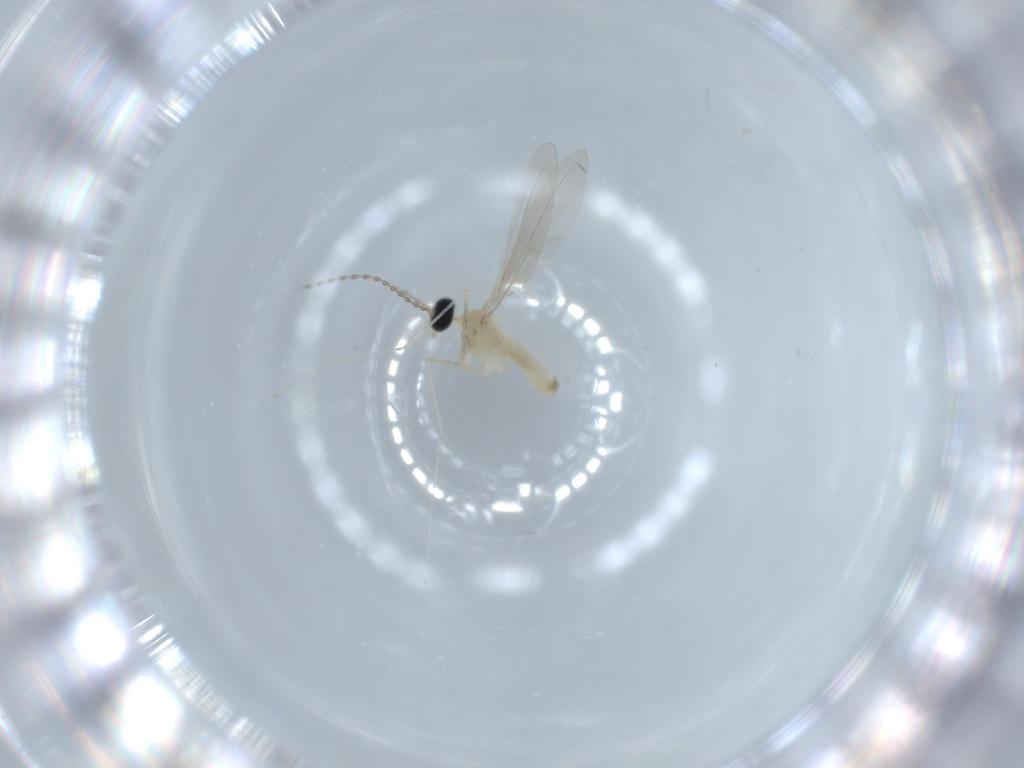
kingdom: Animalia
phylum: Arthropoda
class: Insecta
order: Diptera
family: Cecidomyiidae
